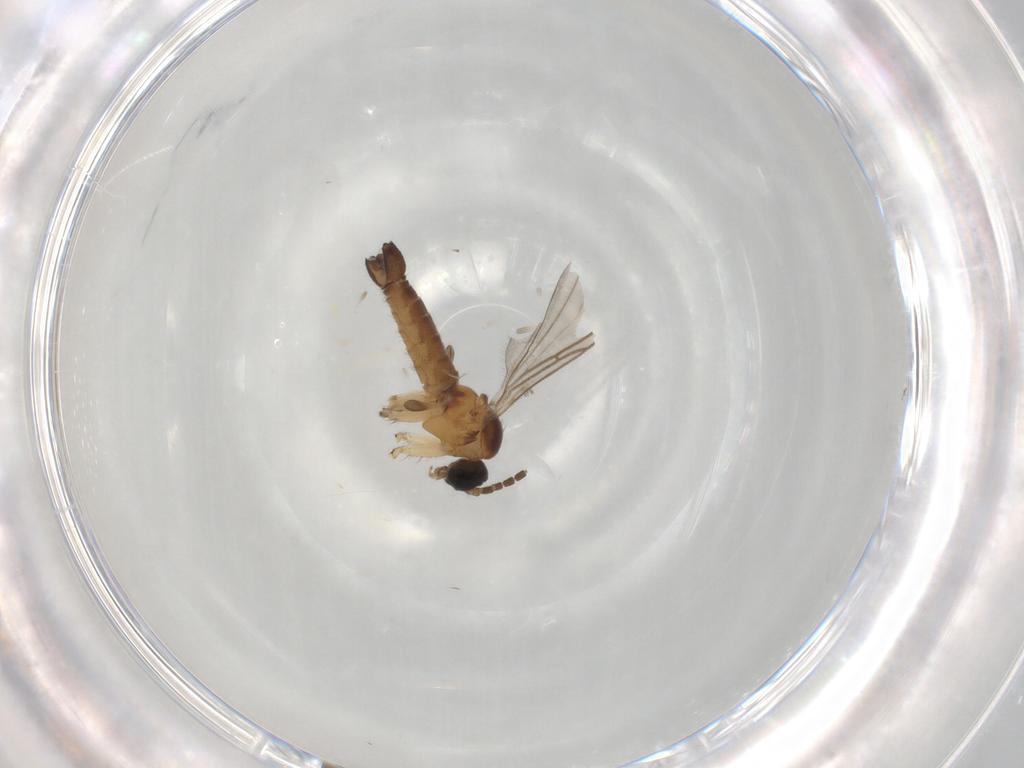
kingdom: Animalia
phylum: Arthropoda
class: Insecta
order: Diptera
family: Sciaridae
